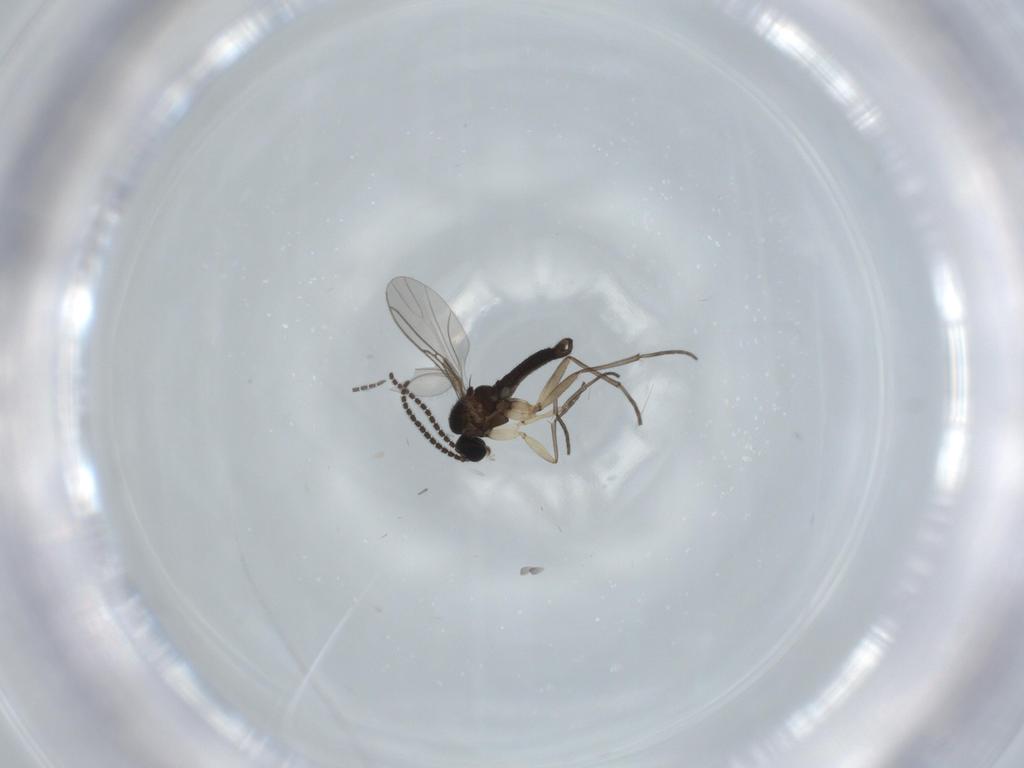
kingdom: Animalia
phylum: Arthropoda
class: Insecta
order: Diptera
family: Sciaridae
